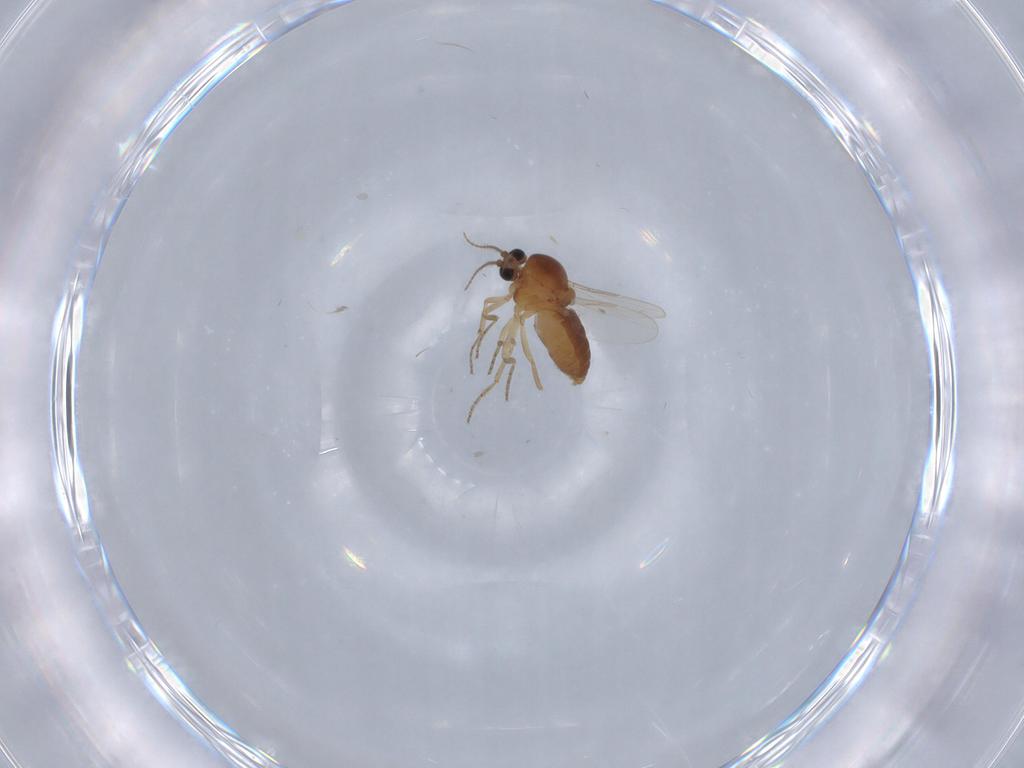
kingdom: Animalia
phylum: Arthropoda
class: Insecta
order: Diptera
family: Ceratopogonidae
